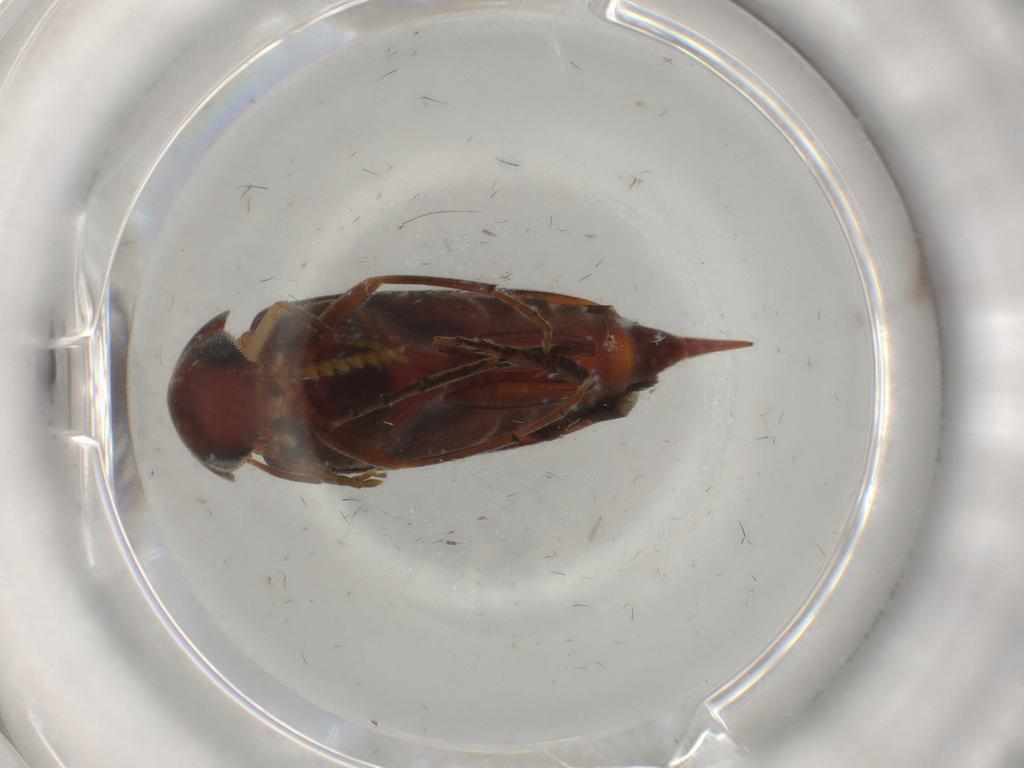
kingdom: Animalia
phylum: Arthropoda
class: Insecta
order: Coleoptera
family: Mordellidae
